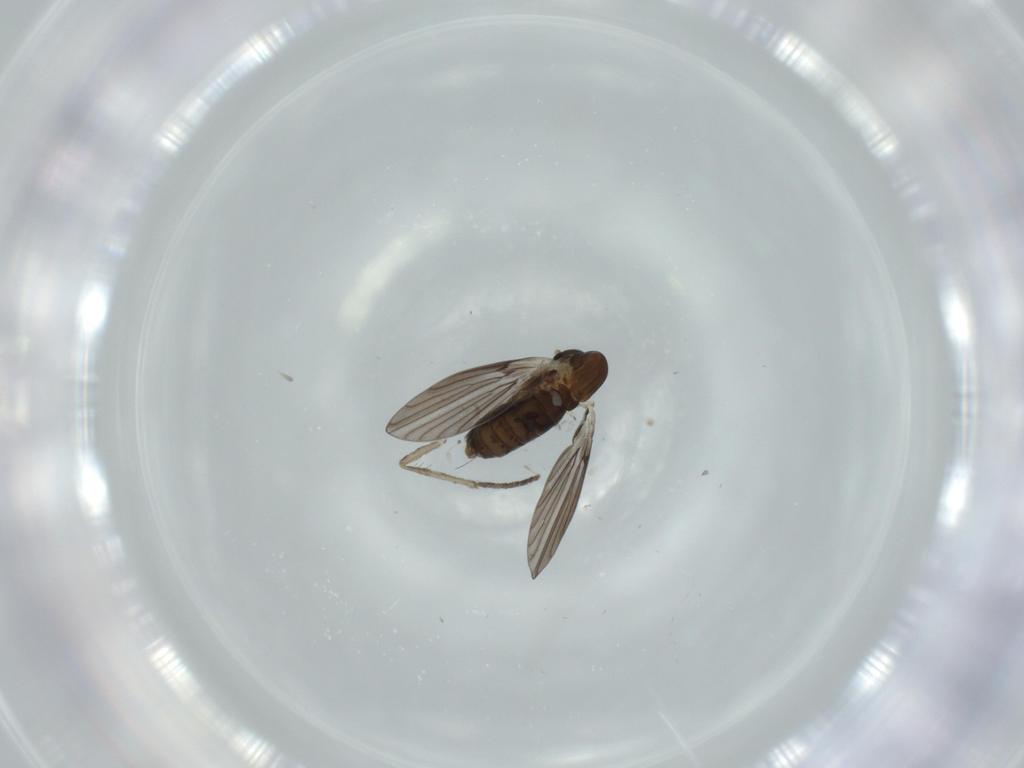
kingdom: Animalia
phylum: Arthropoda
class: Insecta
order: Diptera
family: Psychodidae
